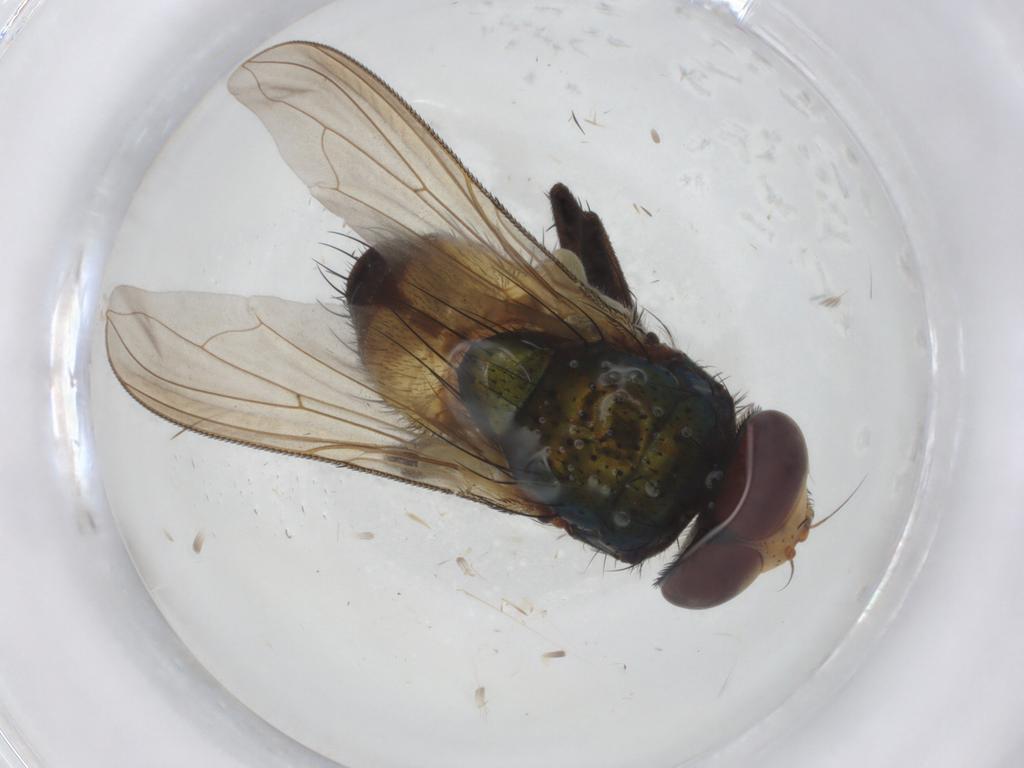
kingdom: Animalia
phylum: Arthropoda
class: Insecta
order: Diptera
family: Calliphoridae
